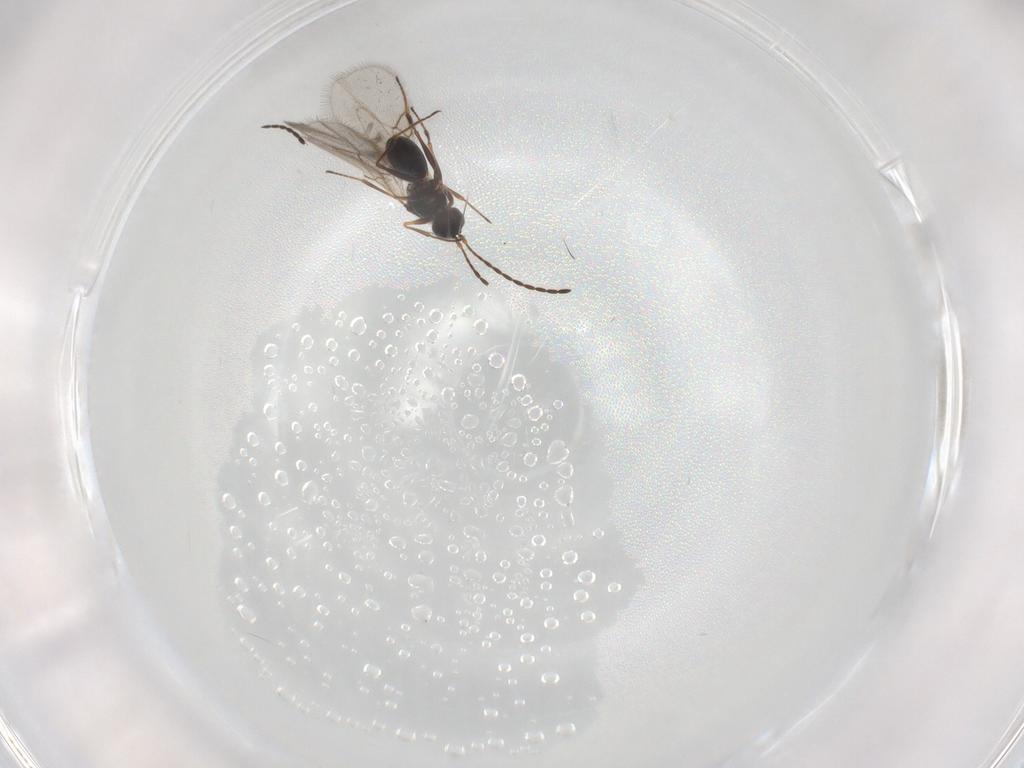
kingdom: Animalia
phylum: Arthropoda
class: Insecta
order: Hymenoptera
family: Figitidae
